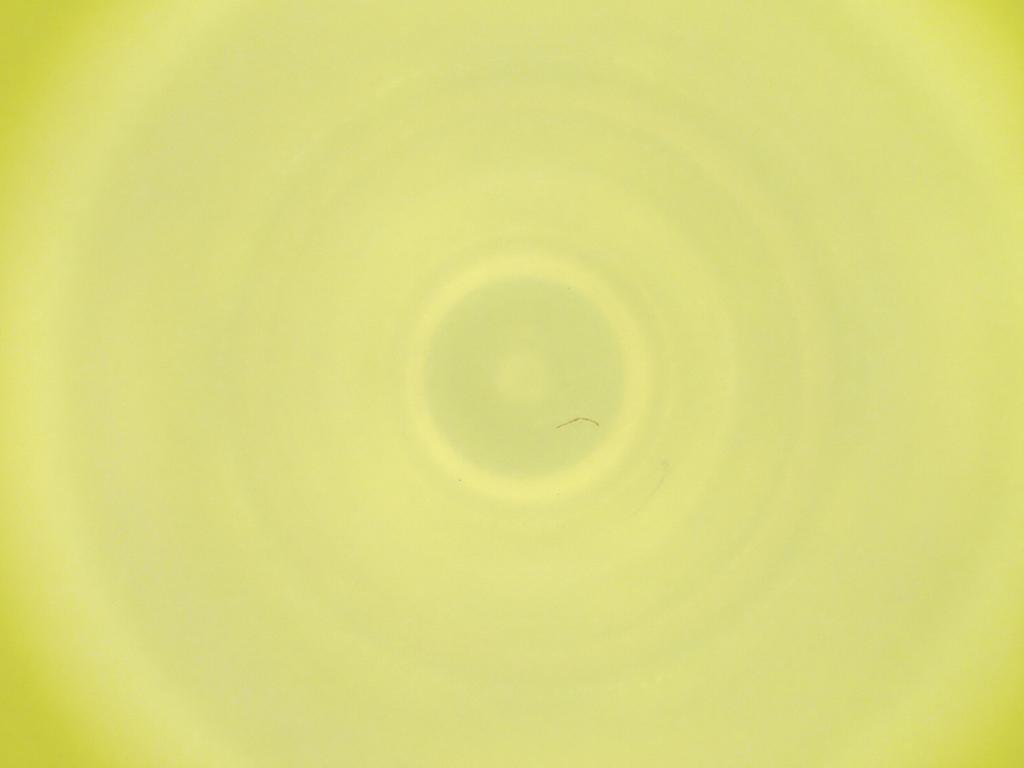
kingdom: Animalia
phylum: Arthropoda
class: Insecta
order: Diptera
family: Cecidomyiidae
